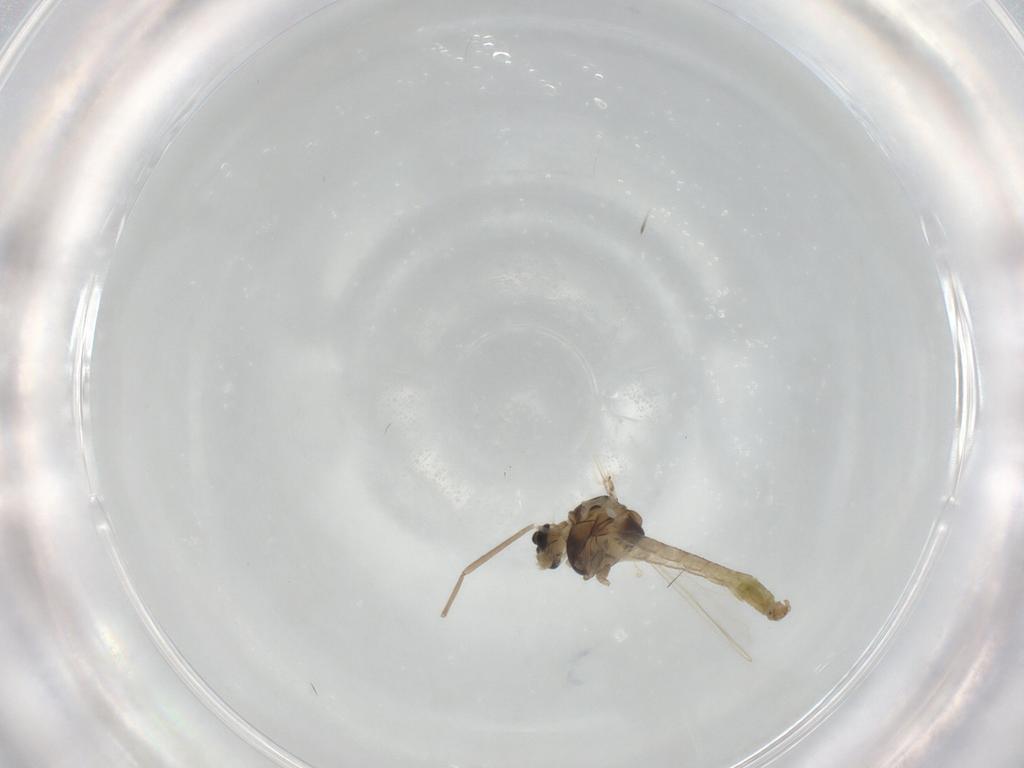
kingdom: Animalia
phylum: Arthropoda
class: Insecta
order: Diptera
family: Chironomidae
